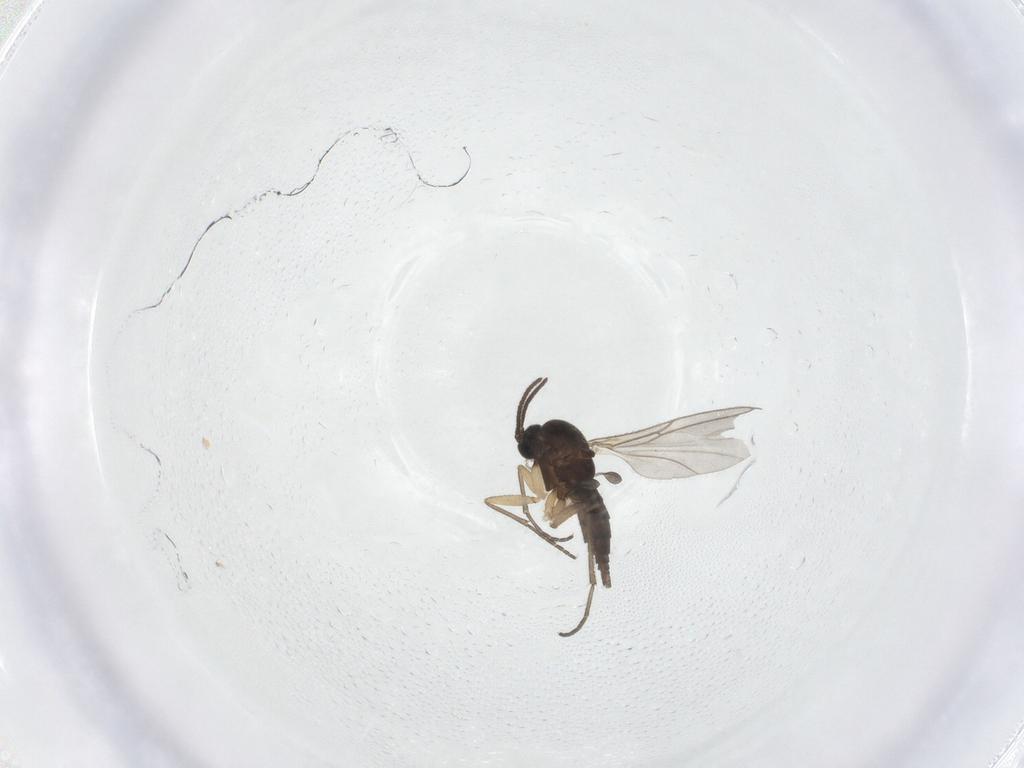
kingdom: Animalia
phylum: Arthropoda
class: Insecta
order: Diptera
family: Sciaridae
